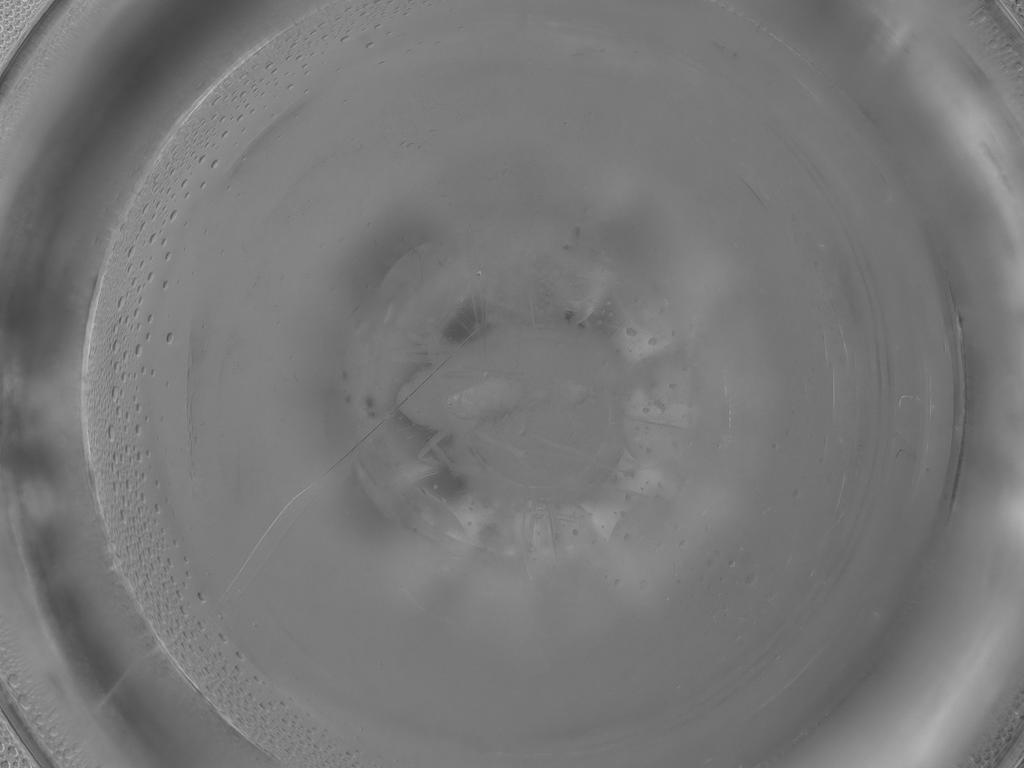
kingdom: Animalia
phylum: Arthropoda
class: Insecta
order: Diptera
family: Cecidomyiidae
